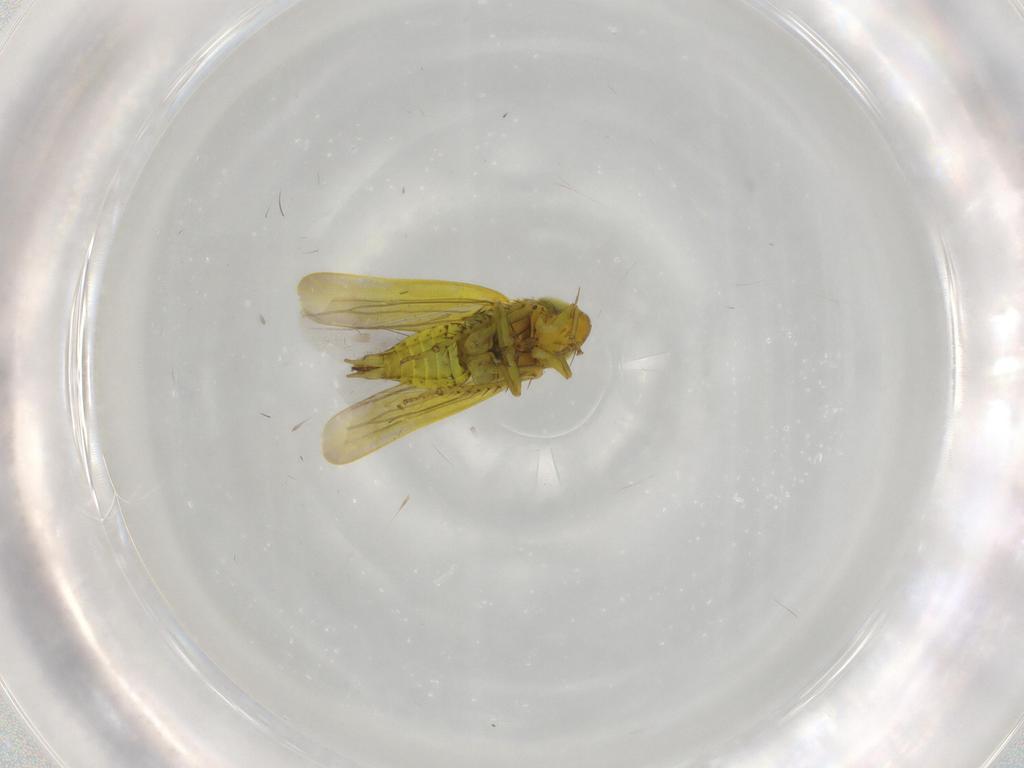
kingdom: Animalia
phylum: Arthropoda
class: Insecta
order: Hemiptera
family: Cicadellidae
